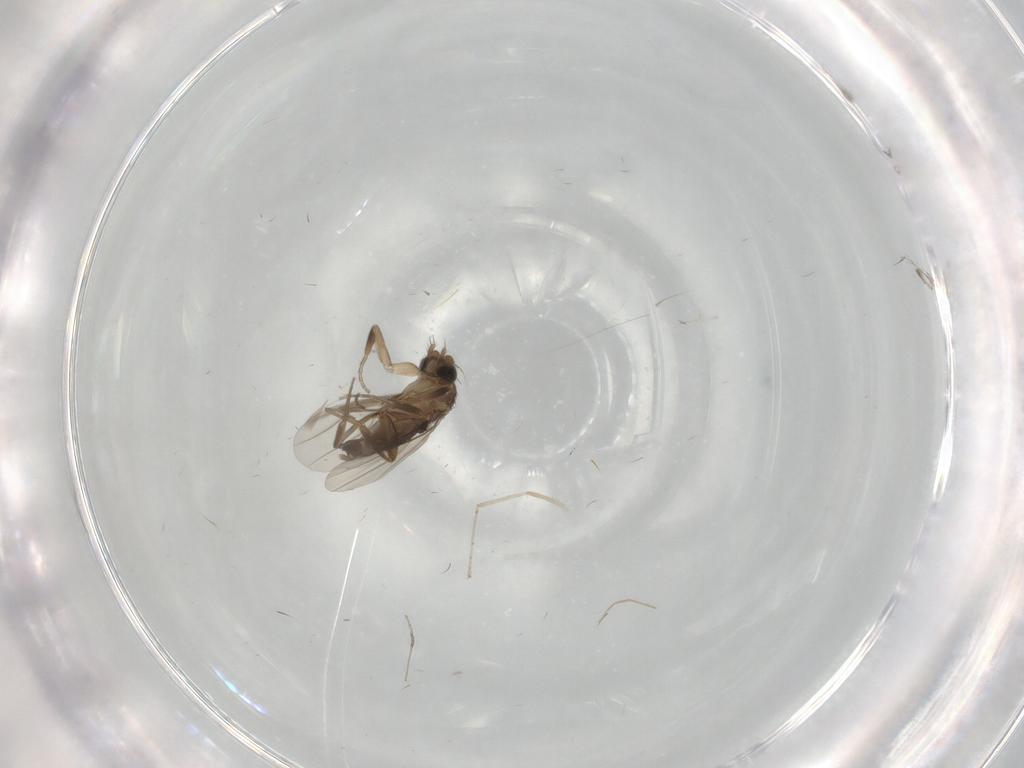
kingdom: Animalia
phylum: Arthropoda
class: Insecta
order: Diptera
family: Phoridae
